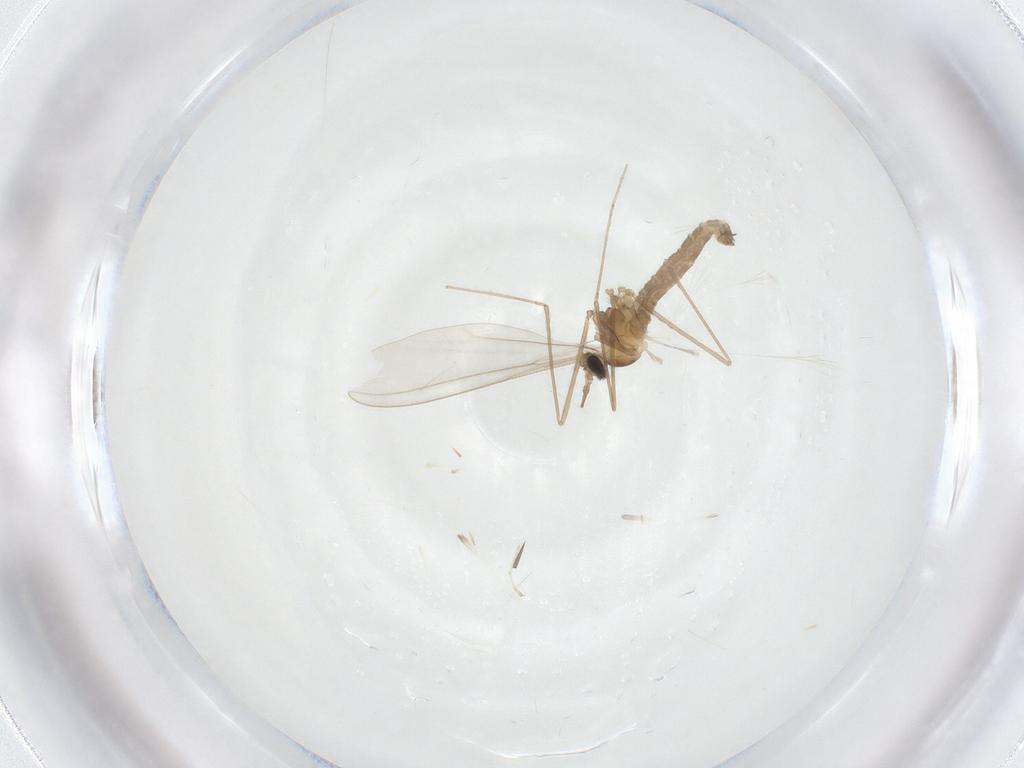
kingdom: Animalia
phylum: Arthropoda
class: Insecta
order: Diptera
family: Cecidomyiidae
